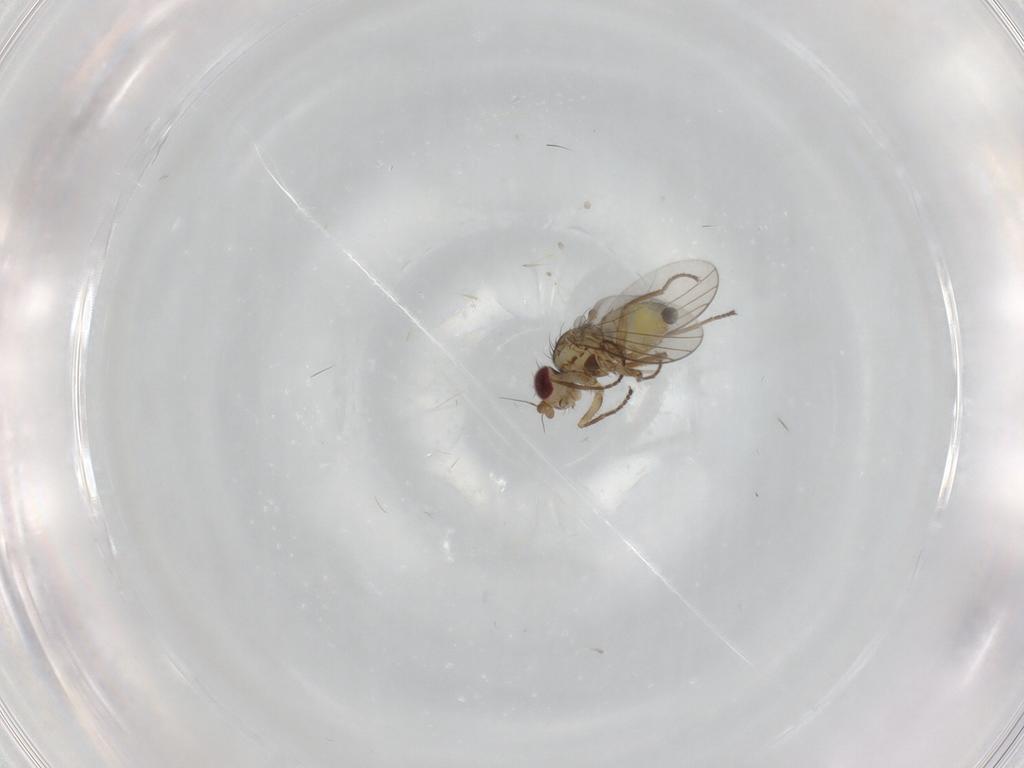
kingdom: Animalia
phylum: Arthropoda
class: Insecta
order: Diptera
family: Agromyzidae
